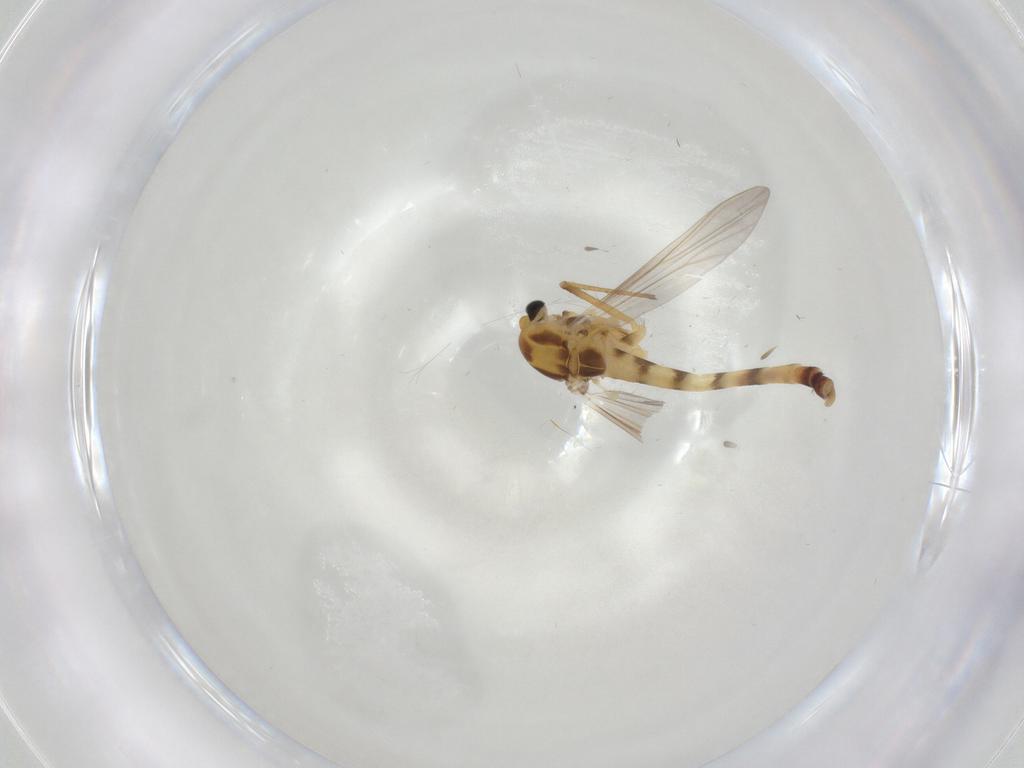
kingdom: Animalia
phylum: Arthropoda
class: Insecta
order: Diptera
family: Chironomidae
